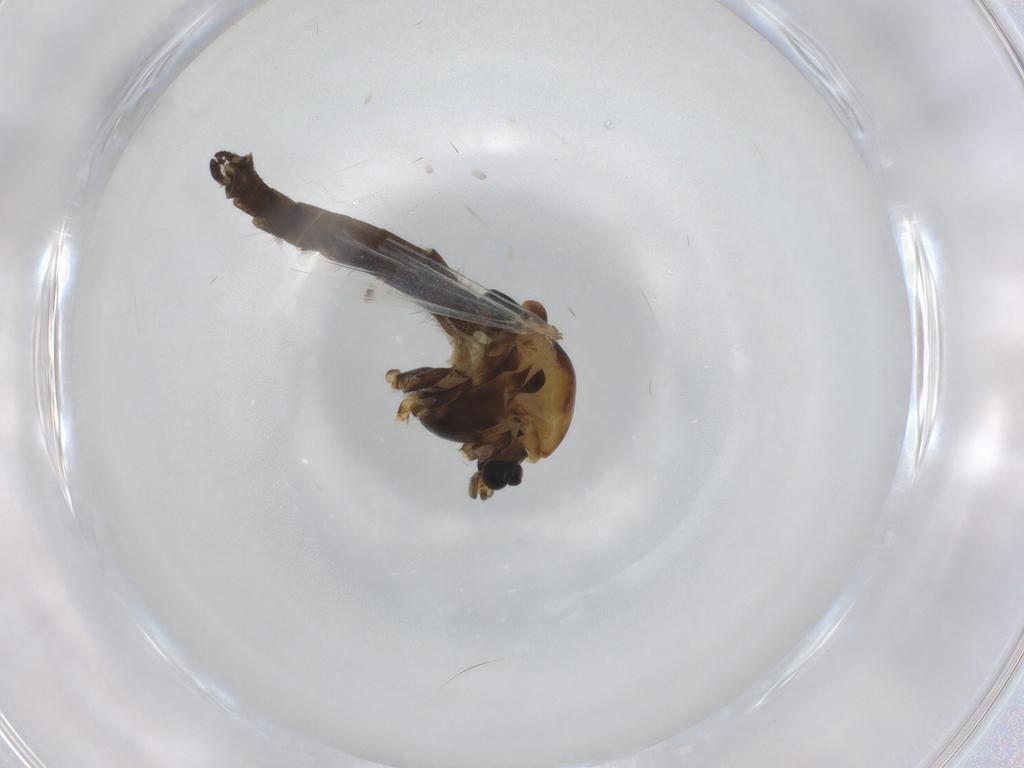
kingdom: Animalia
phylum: Arthropoda
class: Insecta
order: Diptera
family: Chironomidae
